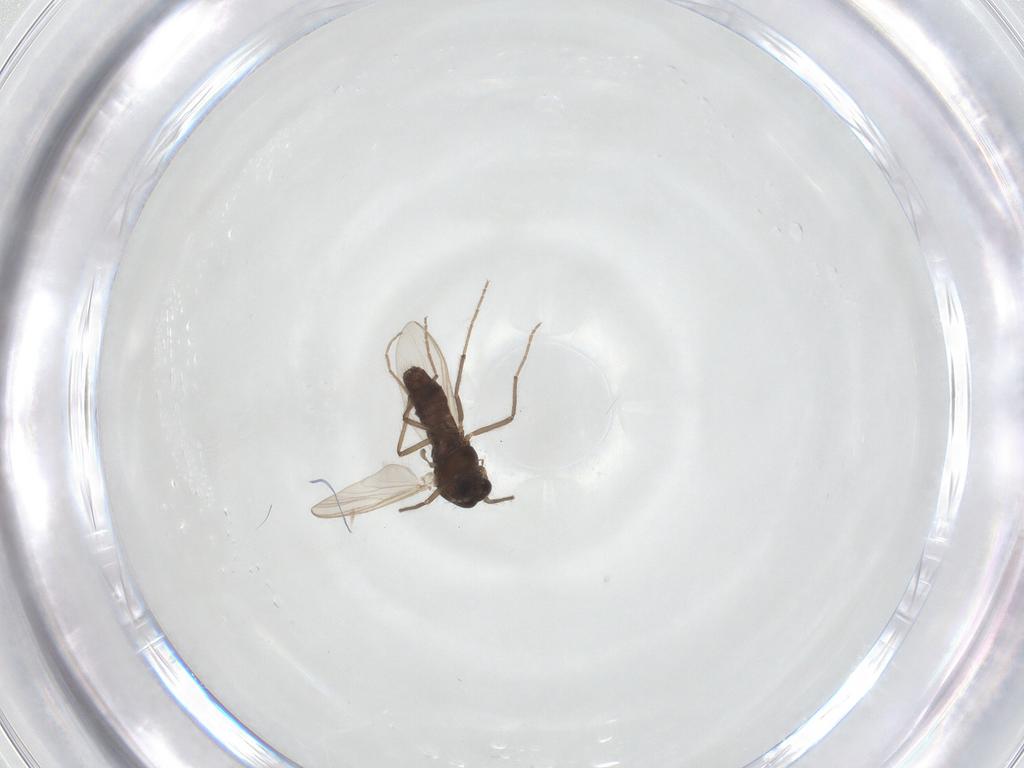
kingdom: Animalia
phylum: Arthropoda
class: Insecta
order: Diptera
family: Chironomidae
